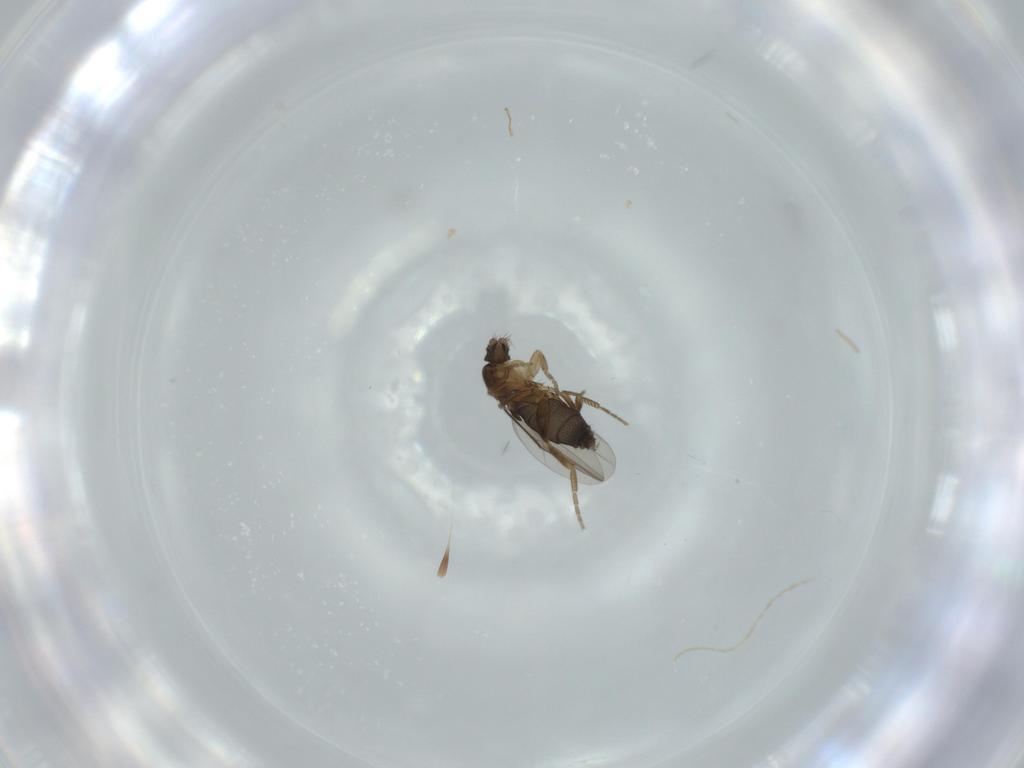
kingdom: Animalia
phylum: Arthropoda
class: Insecta
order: Diptera
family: Phoridae
